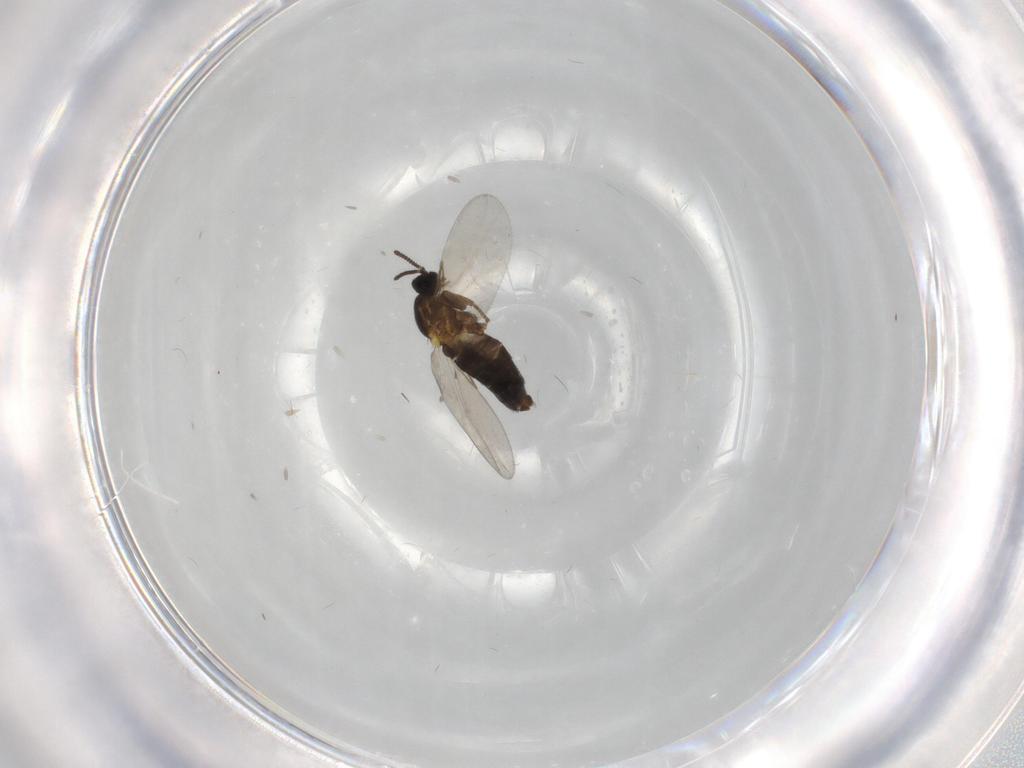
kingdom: Animalia
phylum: Arthropoda
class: Insecta
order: Diptera
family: Scatopsidae
